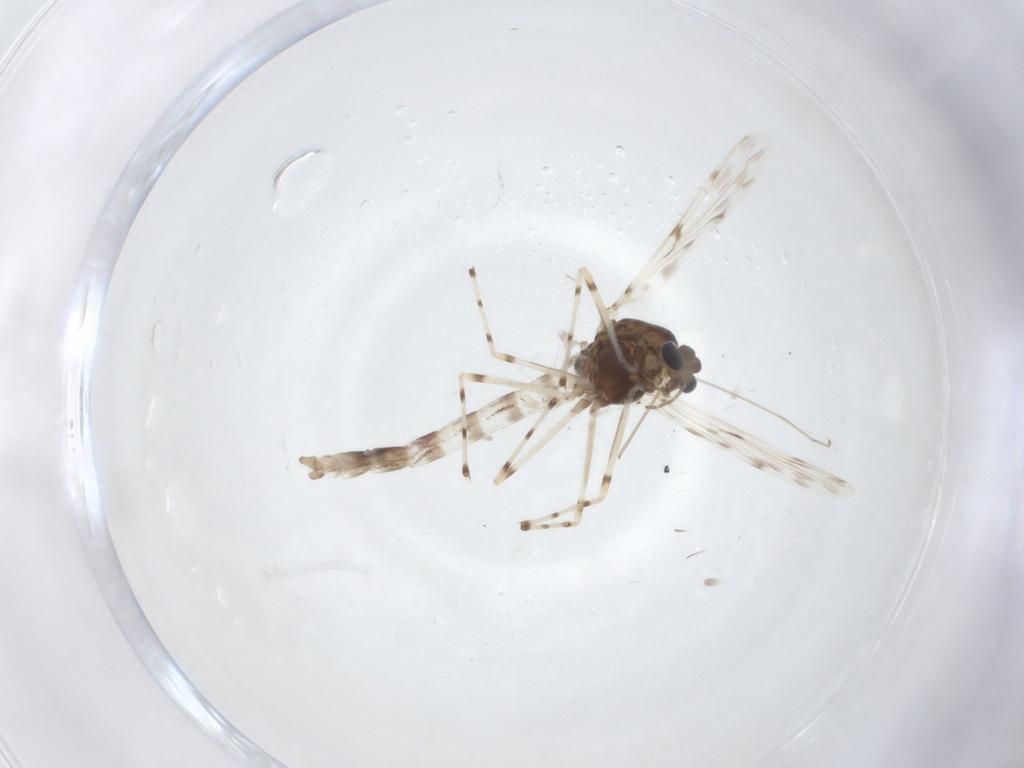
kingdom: Animalia
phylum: Arthropoda
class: Insecta
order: Diptera
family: Chironomidae
